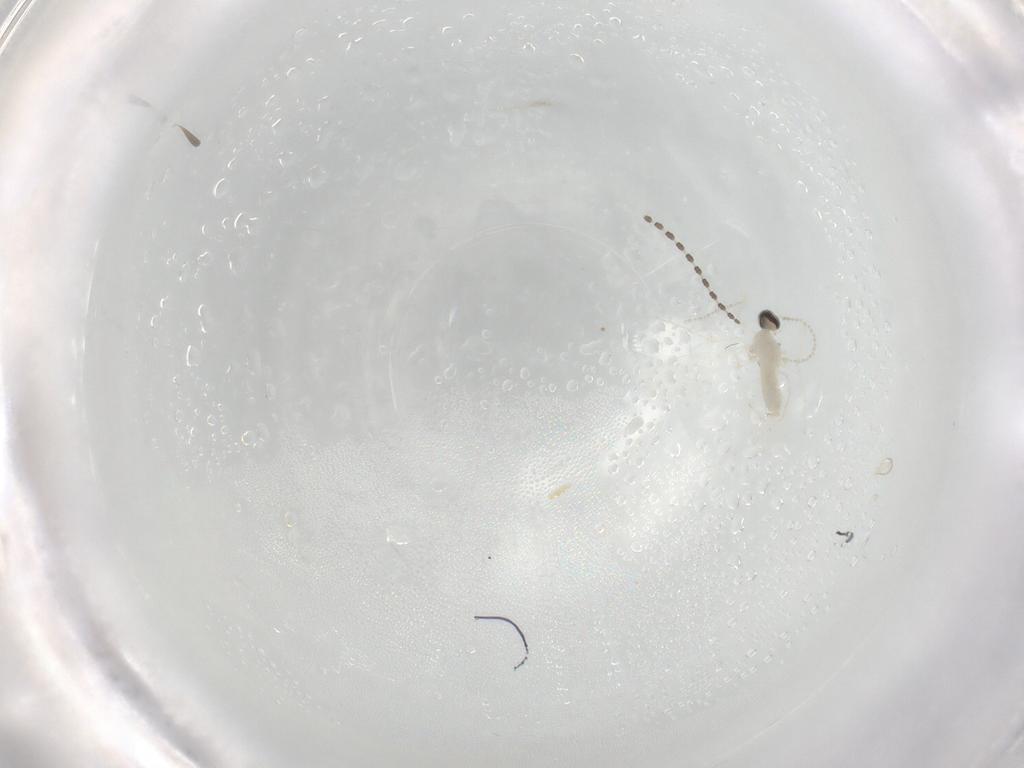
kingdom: Animalia
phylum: Arthropoda
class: Insecta
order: Diptera
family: Cecidomyiidae
